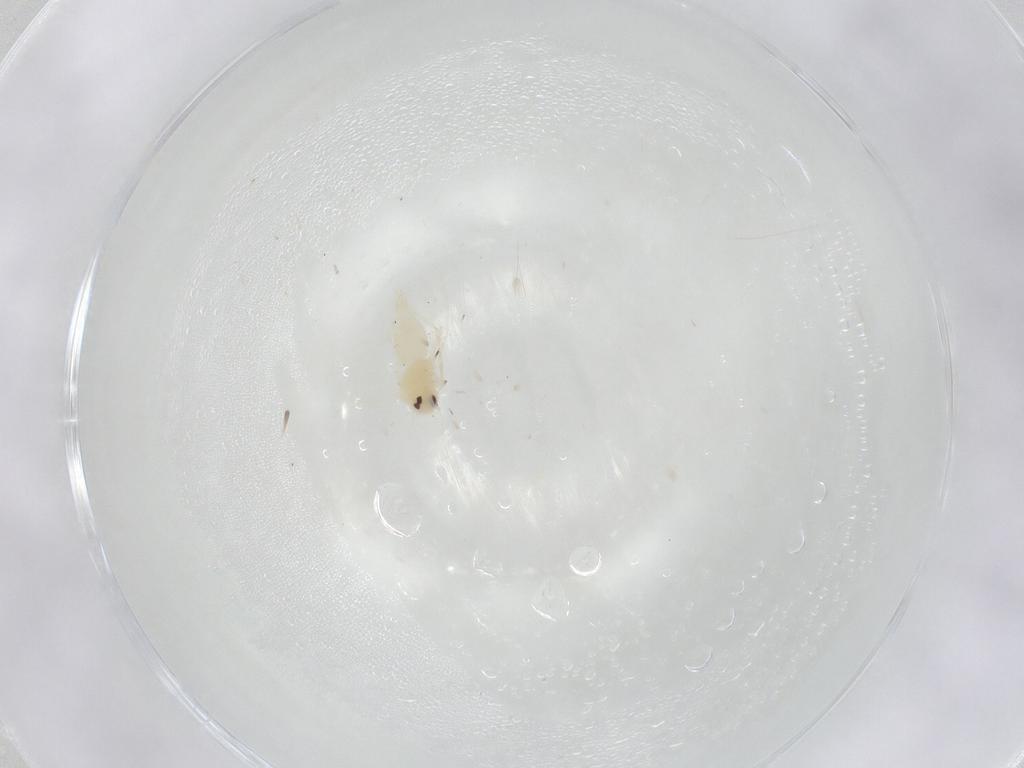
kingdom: Animalia
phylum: Arthropoda
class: Insecta
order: Hemiptera
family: Aleyrodidae
